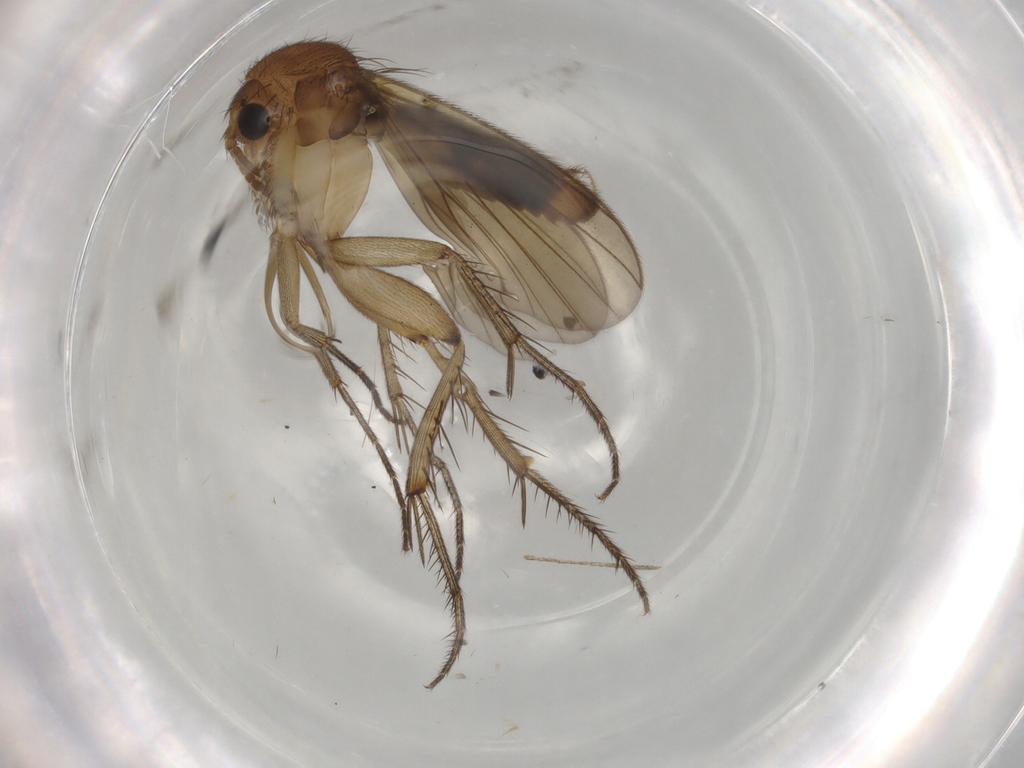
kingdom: Animalia
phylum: Arthropoda
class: Insecta
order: Diptera
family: Mycetophilidae
